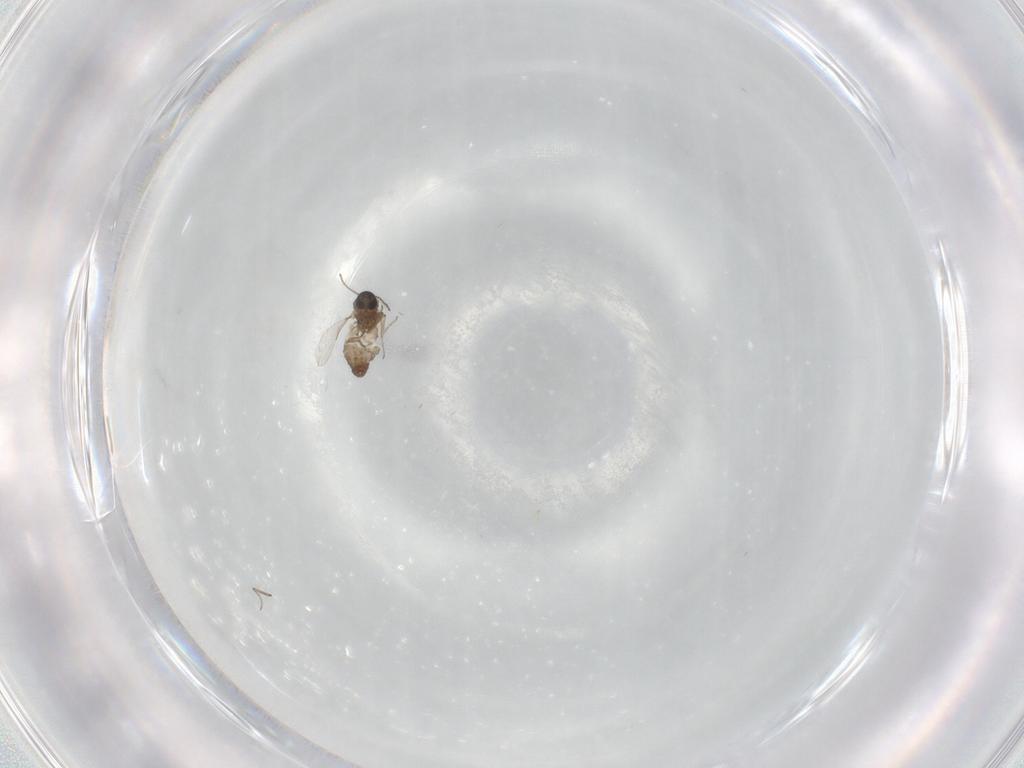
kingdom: Animalia
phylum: Arthropoda
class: Insecta
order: Diptera
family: Ceratopogonidae
